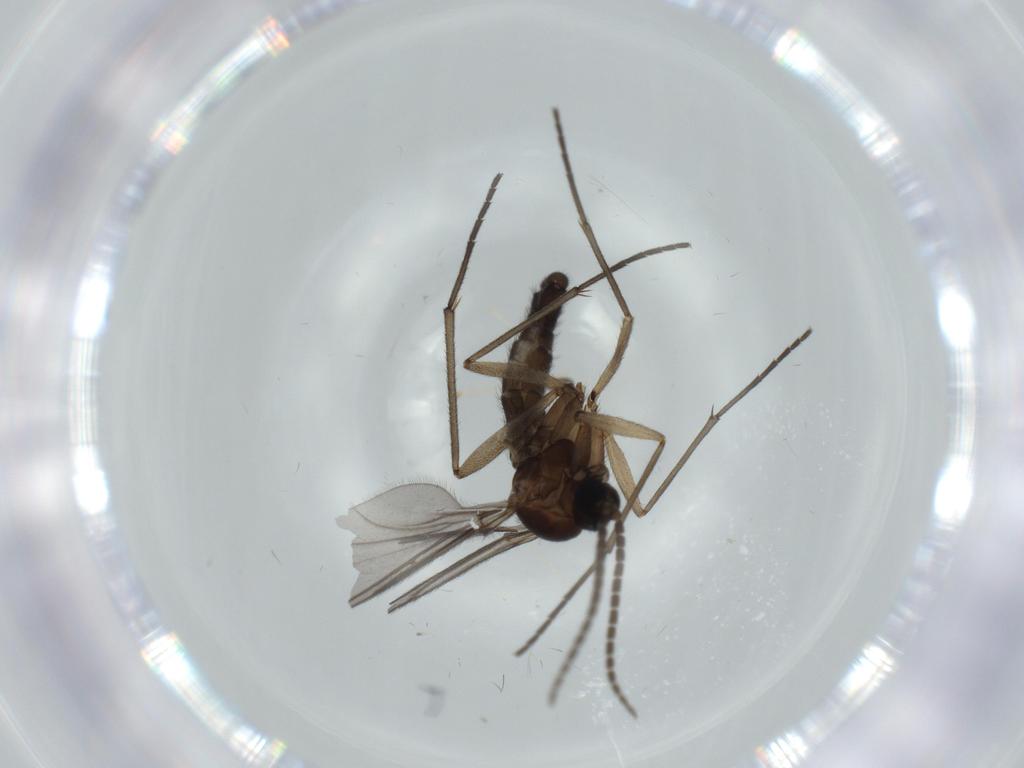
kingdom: Animalia
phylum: Arthropoda
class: Insecta
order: Diptera
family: Sciaridae
